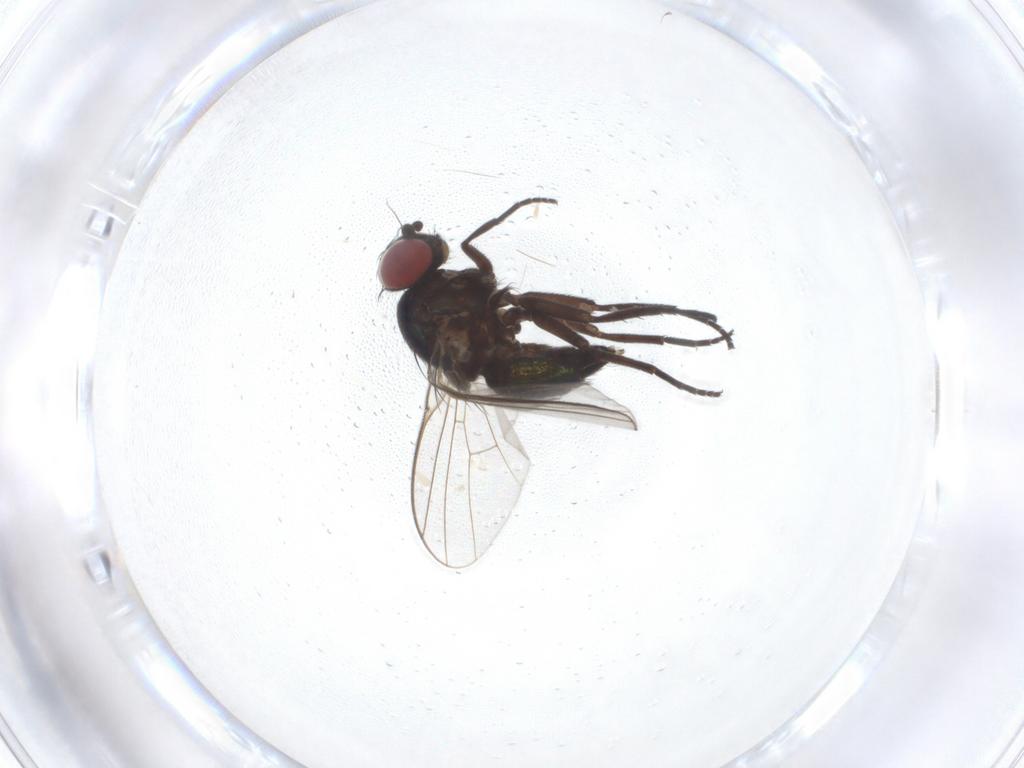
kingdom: Animalia
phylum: Arthropoda
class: Insecta
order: Diptera
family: Agromyzidae
